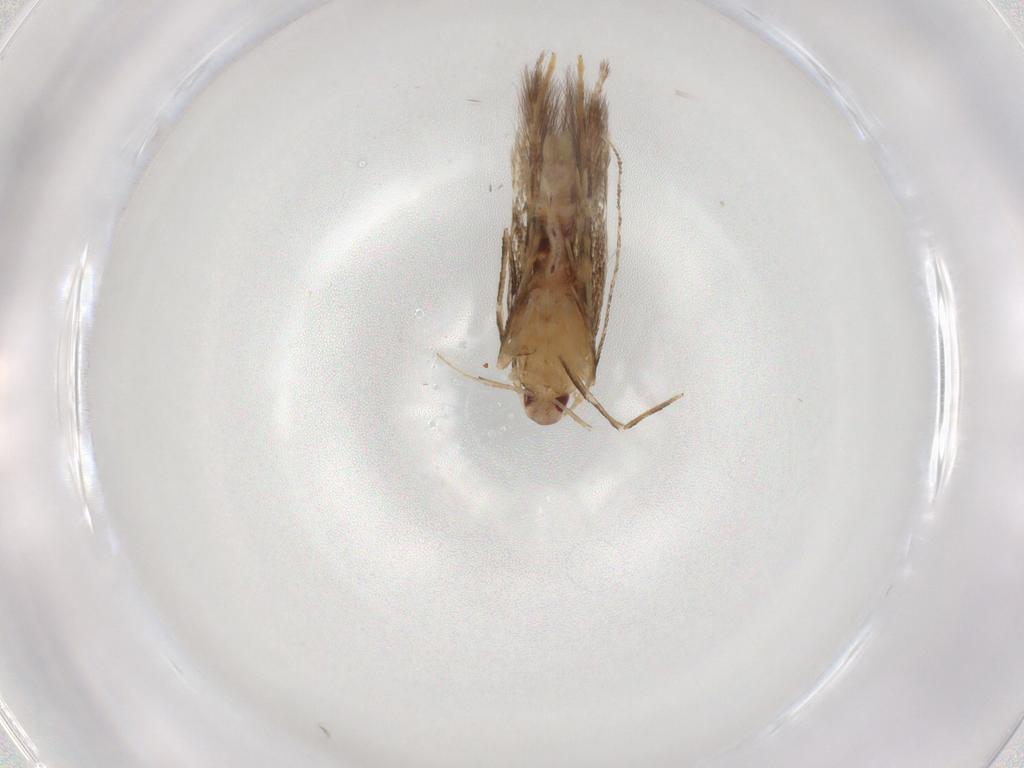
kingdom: Animalia
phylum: Arthropoda
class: Insecta
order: Lepidoptera
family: Cosmopterigidae
